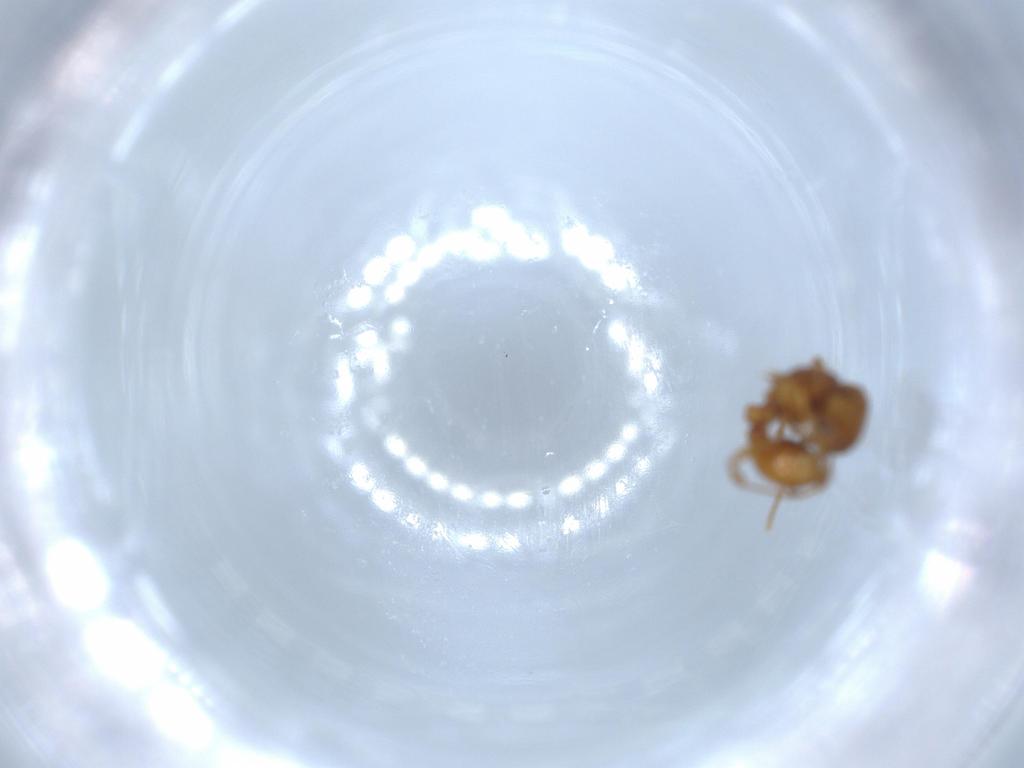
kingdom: Animalia
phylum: Arthropoda
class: Insecta
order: Hymenoptera
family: Formicidae
